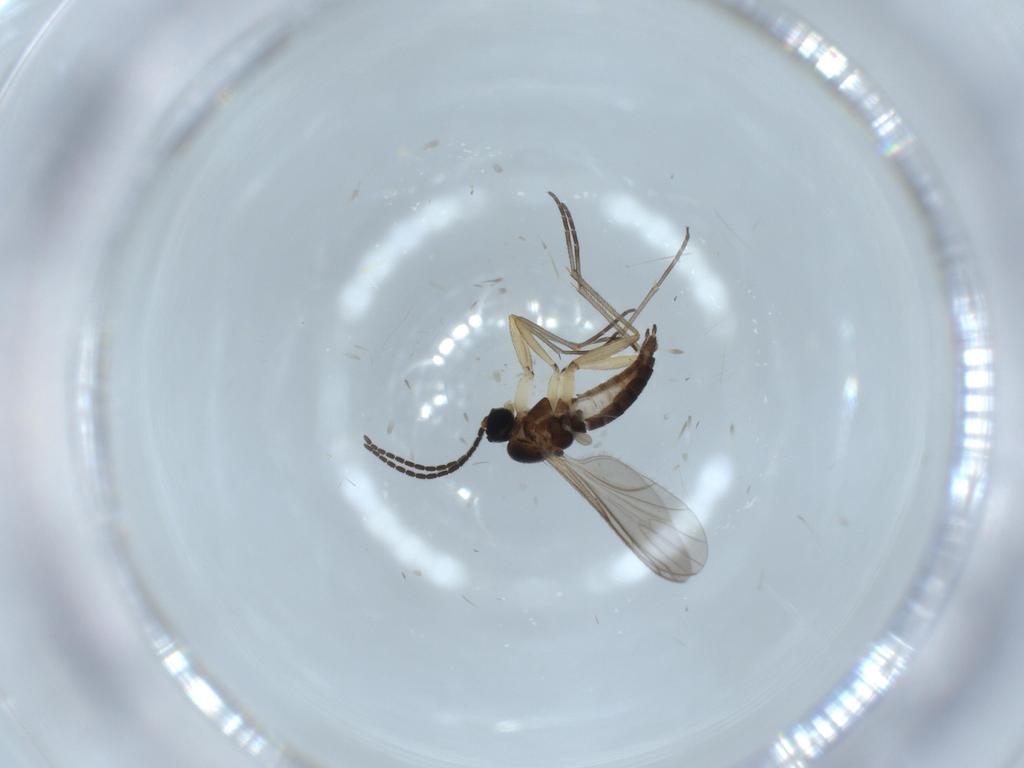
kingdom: Animalia
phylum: Arthropoda
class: Insecta
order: Diptera
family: Sciaridae
